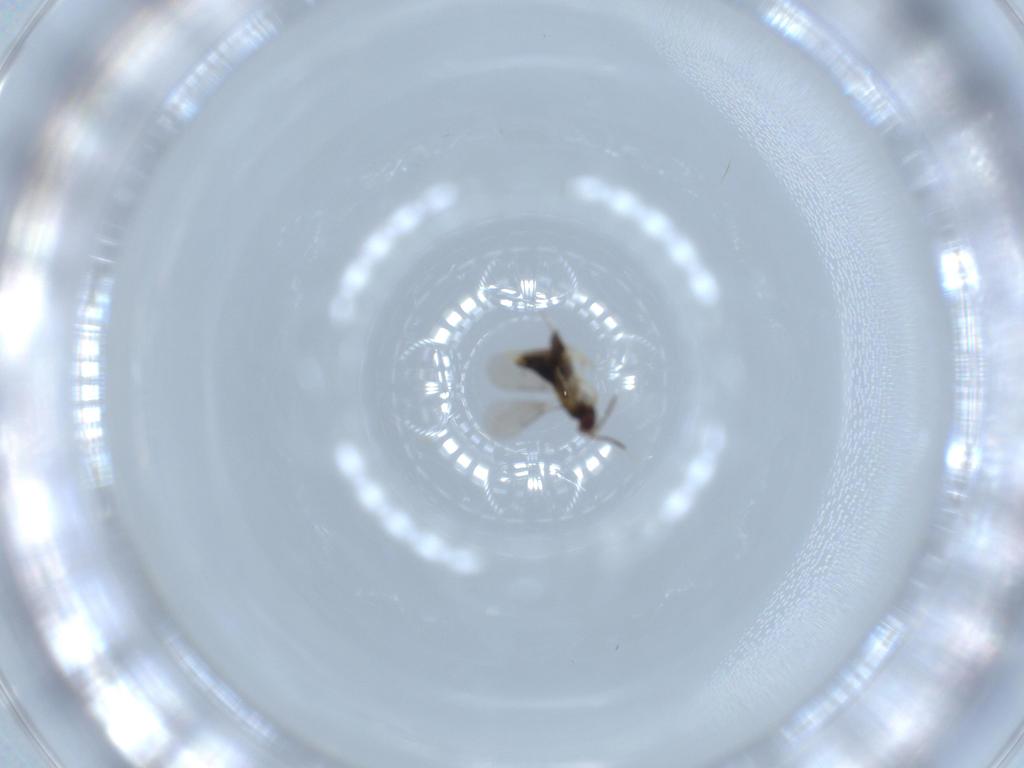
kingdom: Animalia
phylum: Arthropoda
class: Insecta
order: Hymenoptera
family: Aphelinidae
